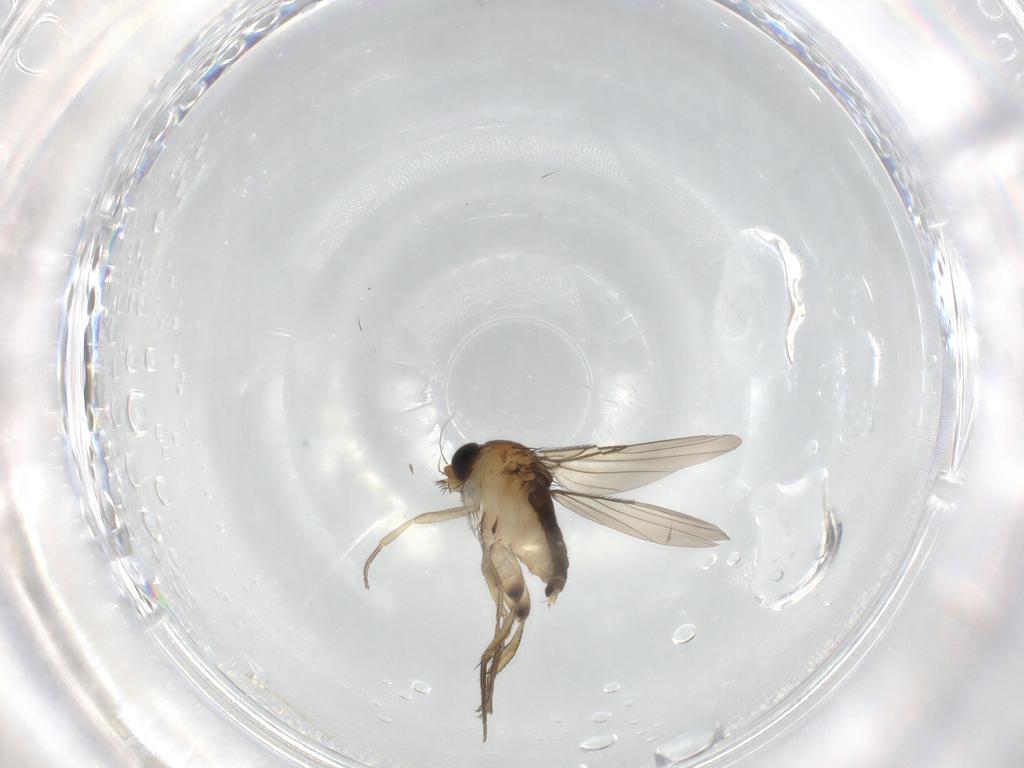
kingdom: Animalia
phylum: Arthropoda
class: Insecta
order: Diptera
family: Phoridae
